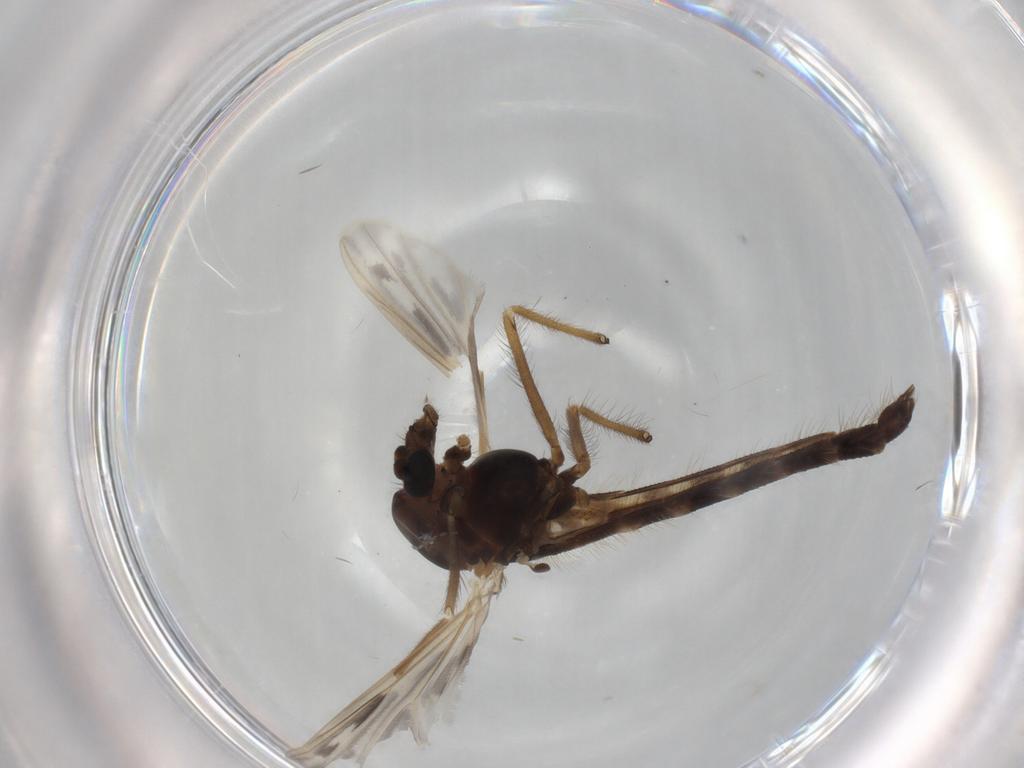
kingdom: Animalia
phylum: Arthropoda
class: Insecta
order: Diptera
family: Chironomidae
